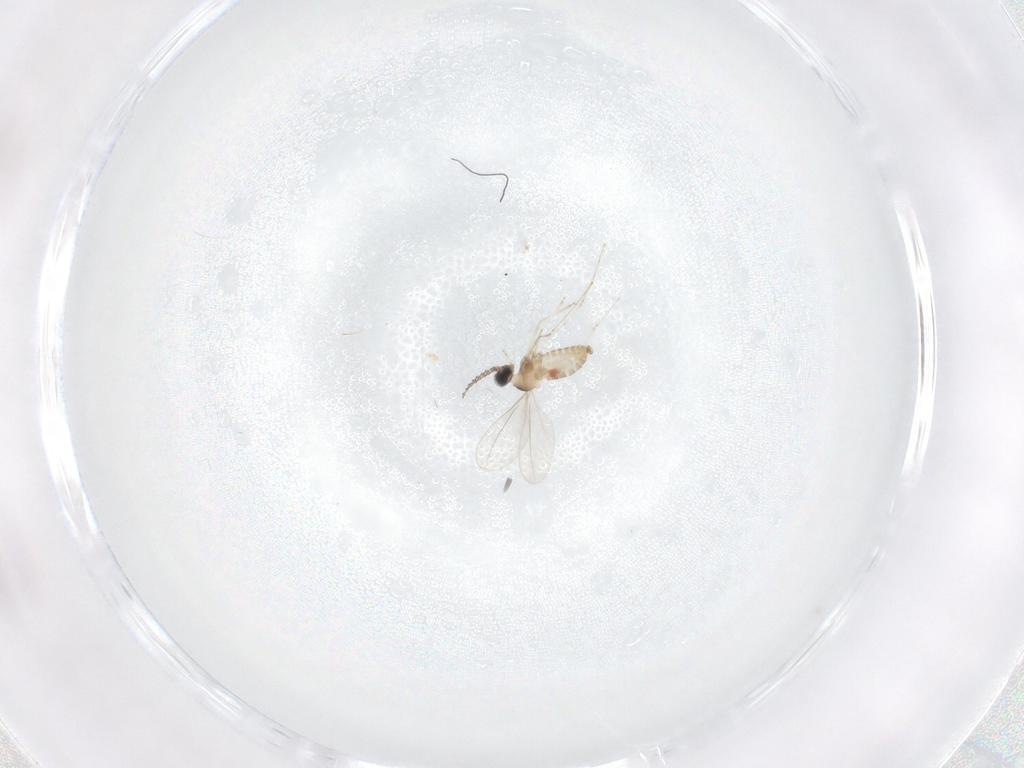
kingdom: Animalia
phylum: Arthropoda
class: Insecta
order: Diptera
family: Cecidomyiidae
